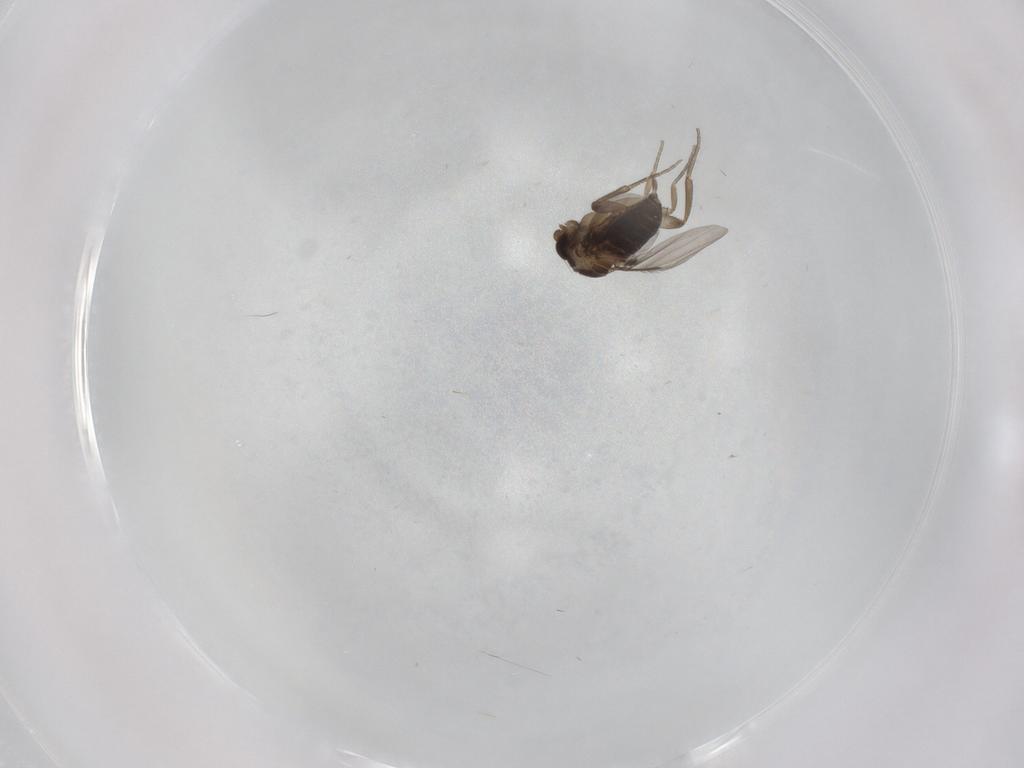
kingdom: Animalia
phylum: Arthropoda
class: Insecta
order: Diptera
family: Phoridae
